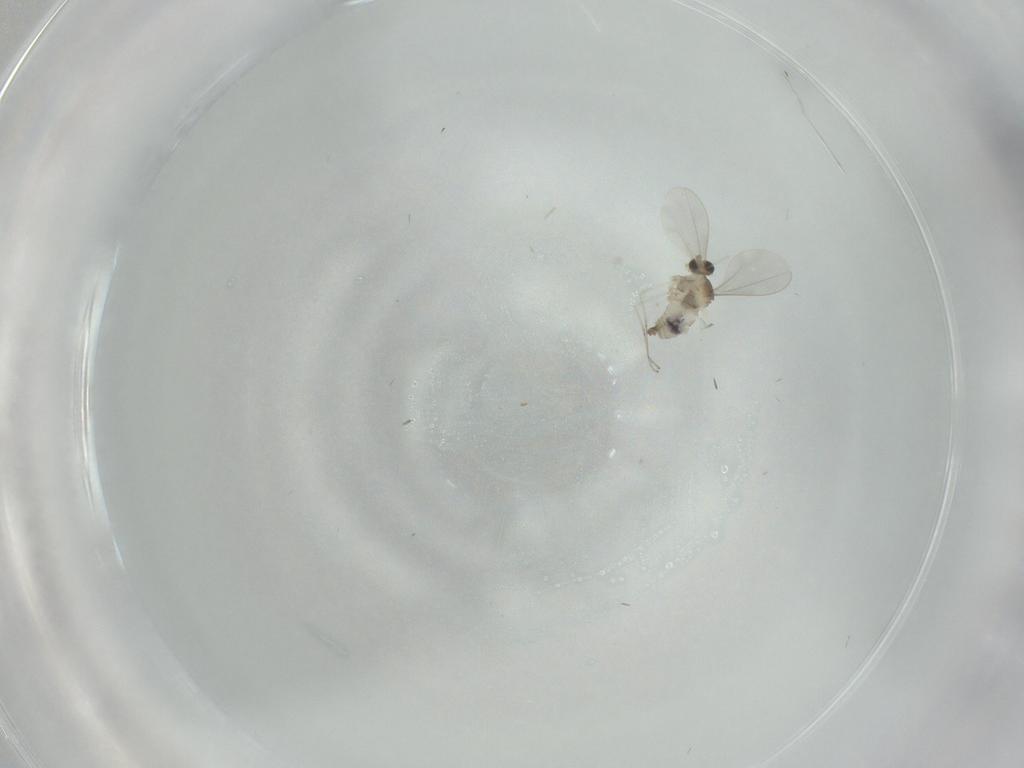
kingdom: Animalia
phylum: Arthropoda
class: Insecta
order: Diptera
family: Cecidomyiidae
